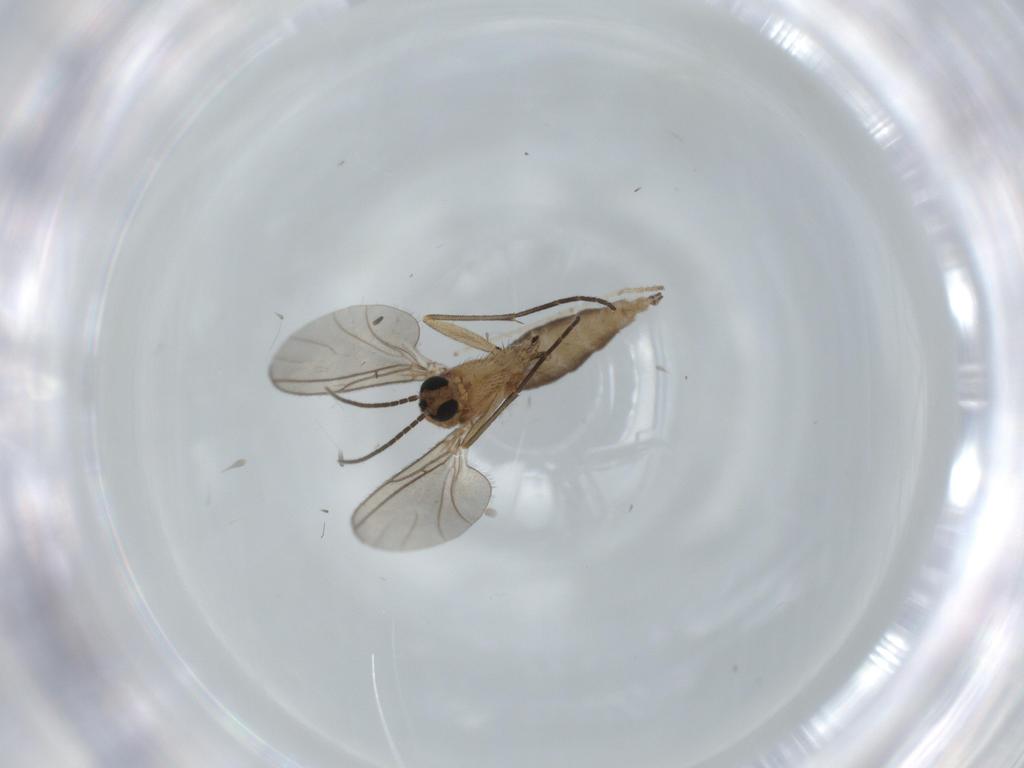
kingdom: Animalia
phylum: Arthropoda
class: Insecta
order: Diptera
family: Sciaridae
